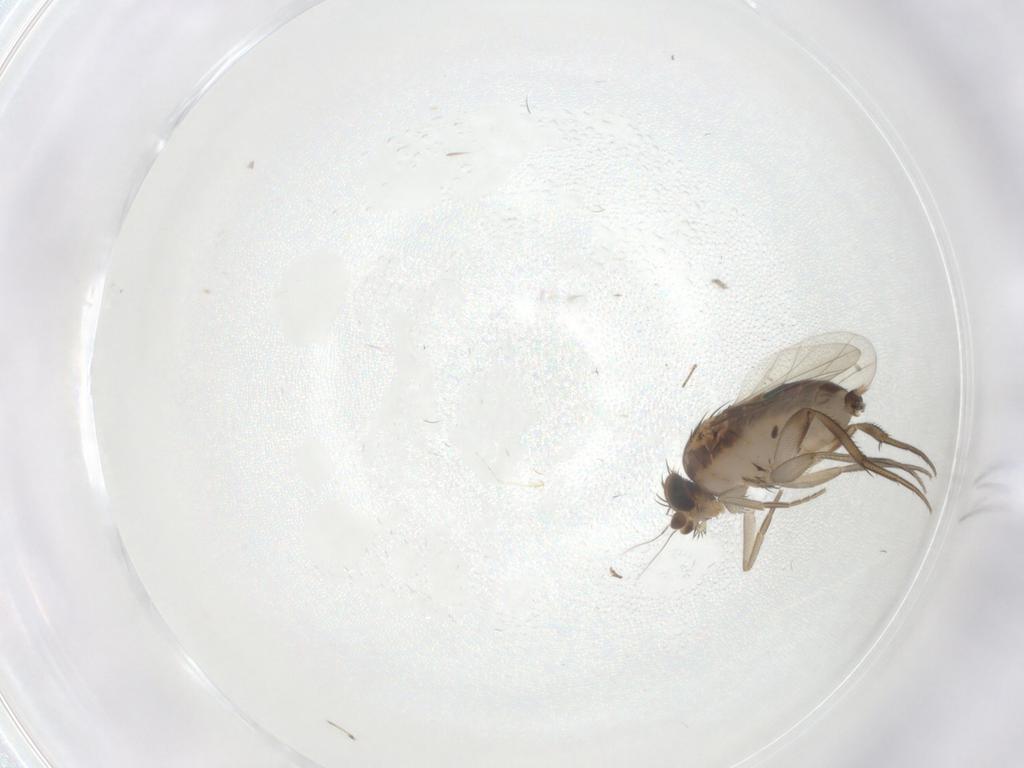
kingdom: Animalia
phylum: Arthropoda
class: Insecta
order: Diptera
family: Phoridae
